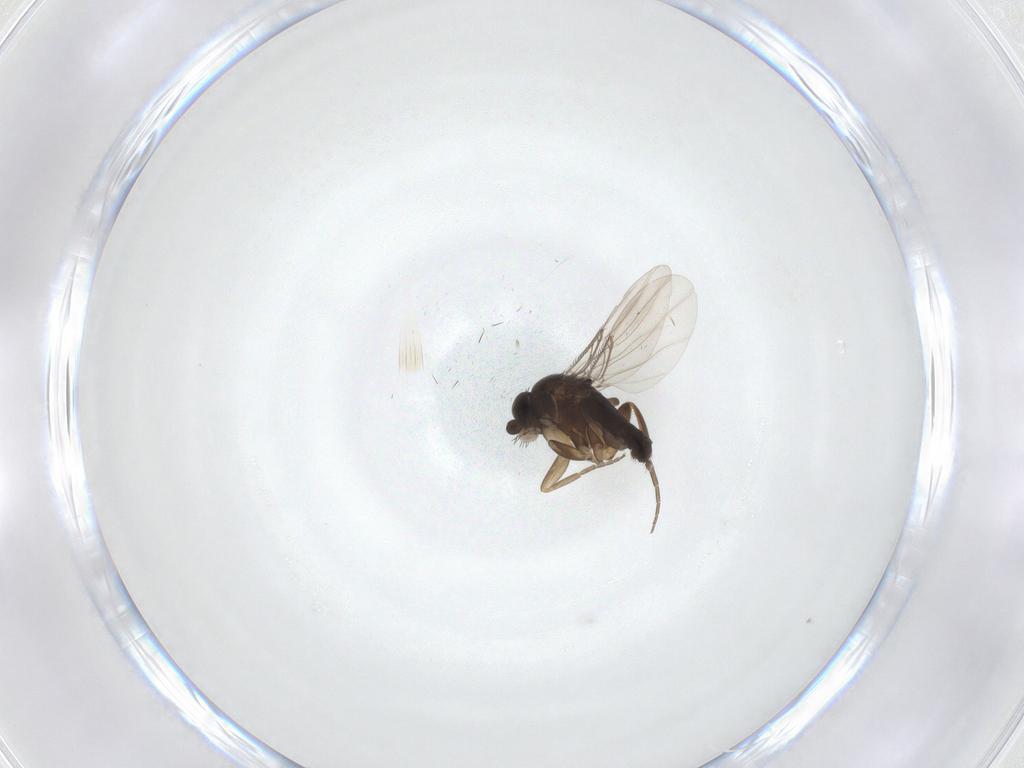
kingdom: Animalia
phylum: Arthropoda
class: Insecta
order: Diptera
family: Phoridae
